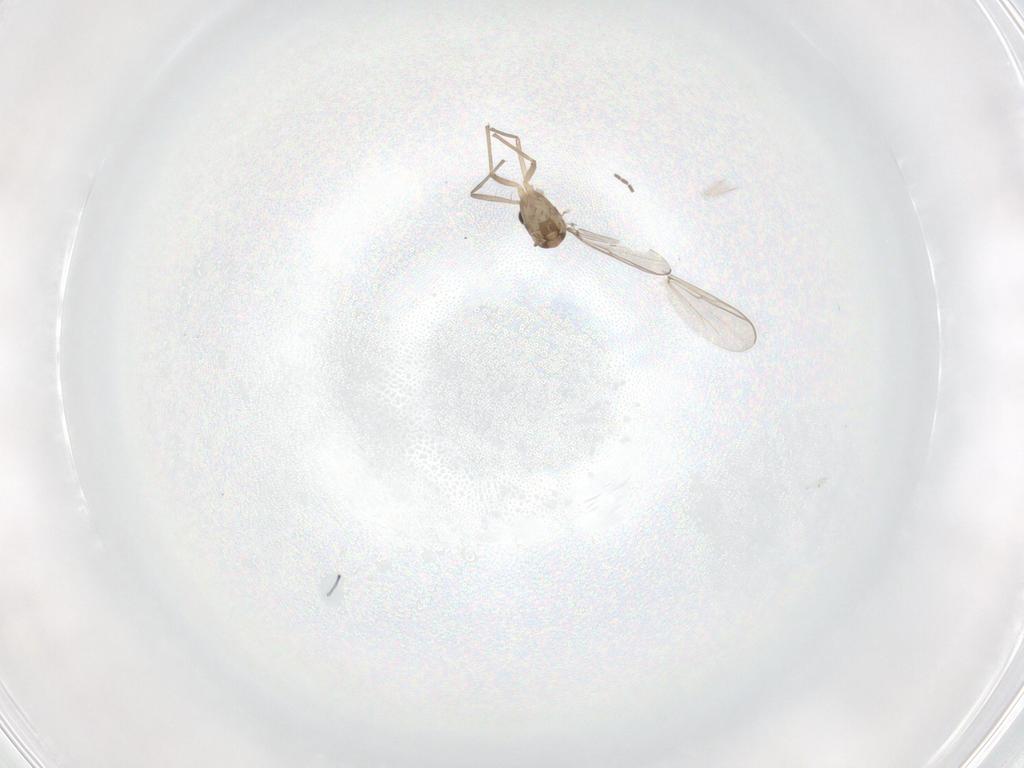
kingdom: Animalia
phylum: Arthropoda
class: Insecta
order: Diptera
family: Chironomidae
